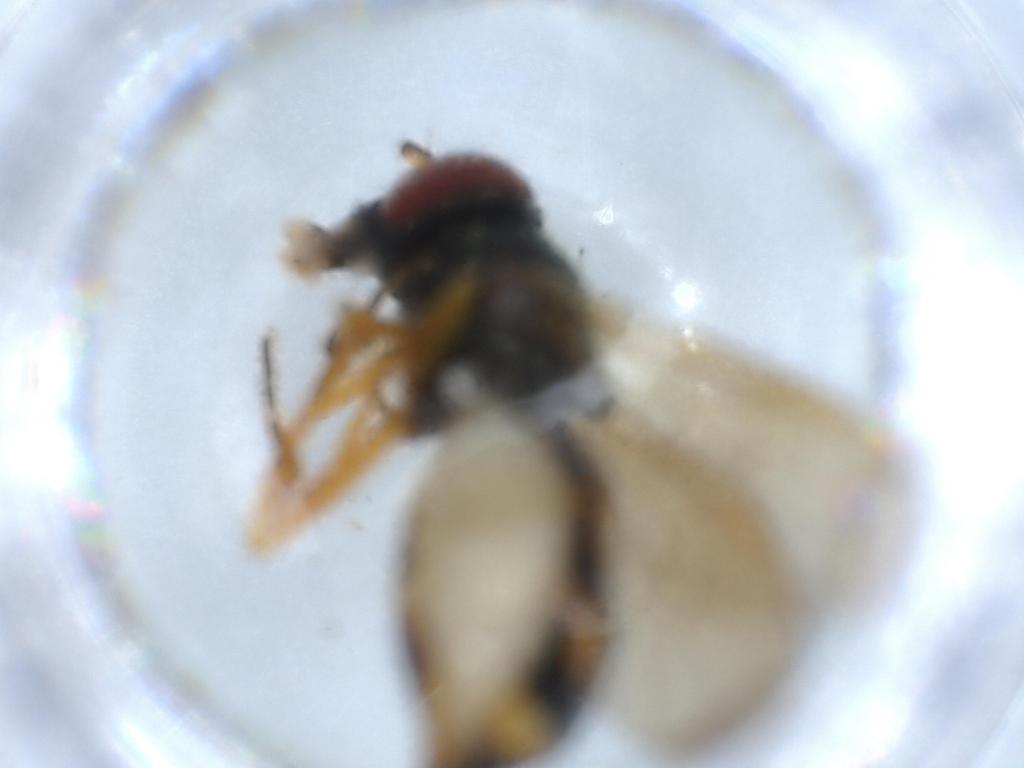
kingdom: Animalia
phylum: Arthropoda
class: Insecta
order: Diptera
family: Syrphidae
